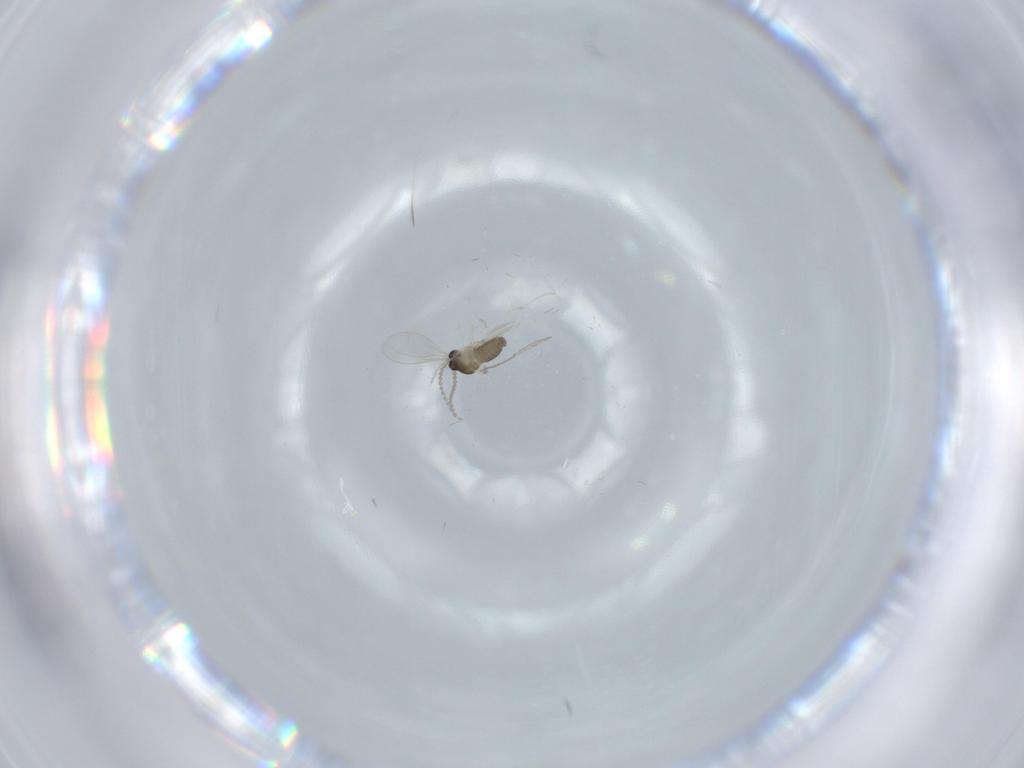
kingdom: Animalia
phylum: Arthropoda
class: Insecta
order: Diptera
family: Cecidomyiidae
